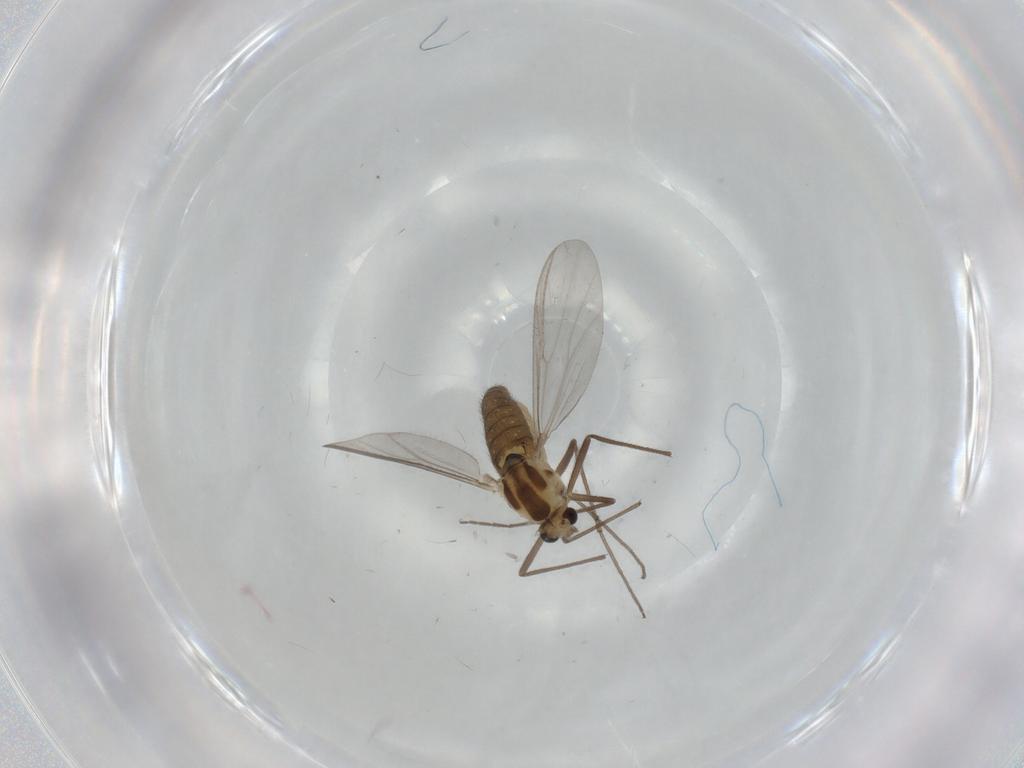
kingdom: Animalia
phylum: Arthropoda
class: Insecta
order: Diptera
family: Chironomidae
